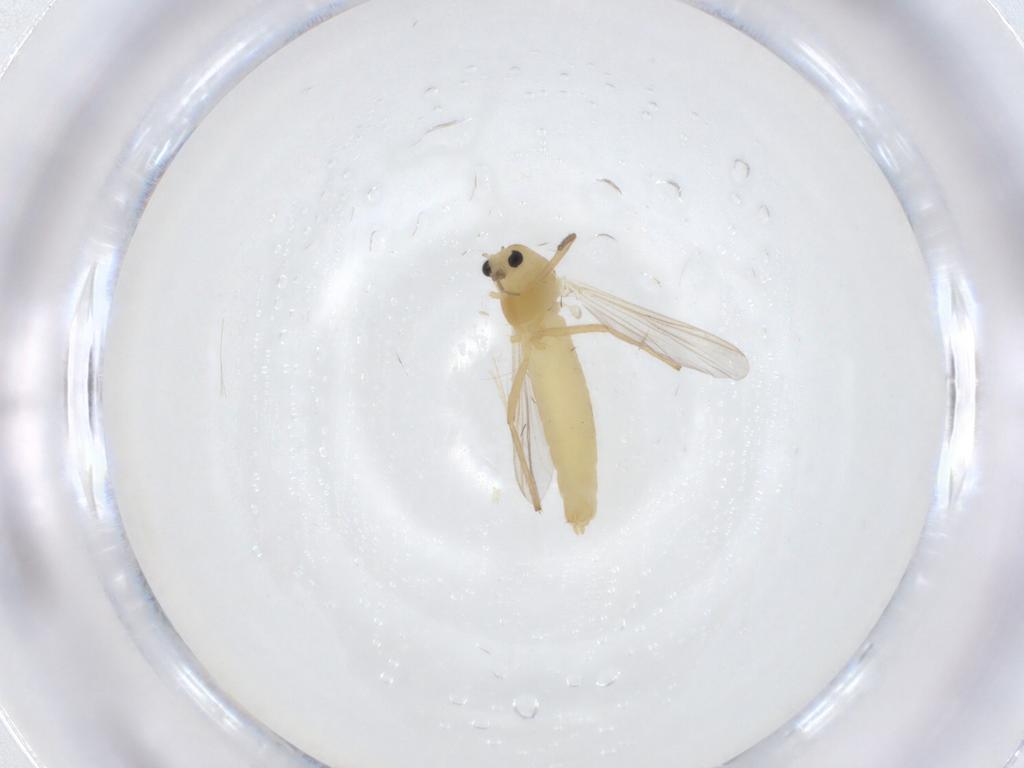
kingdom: Animalia
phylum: Arthropoda
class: Insecta
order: Diptera
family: Chironomidae
